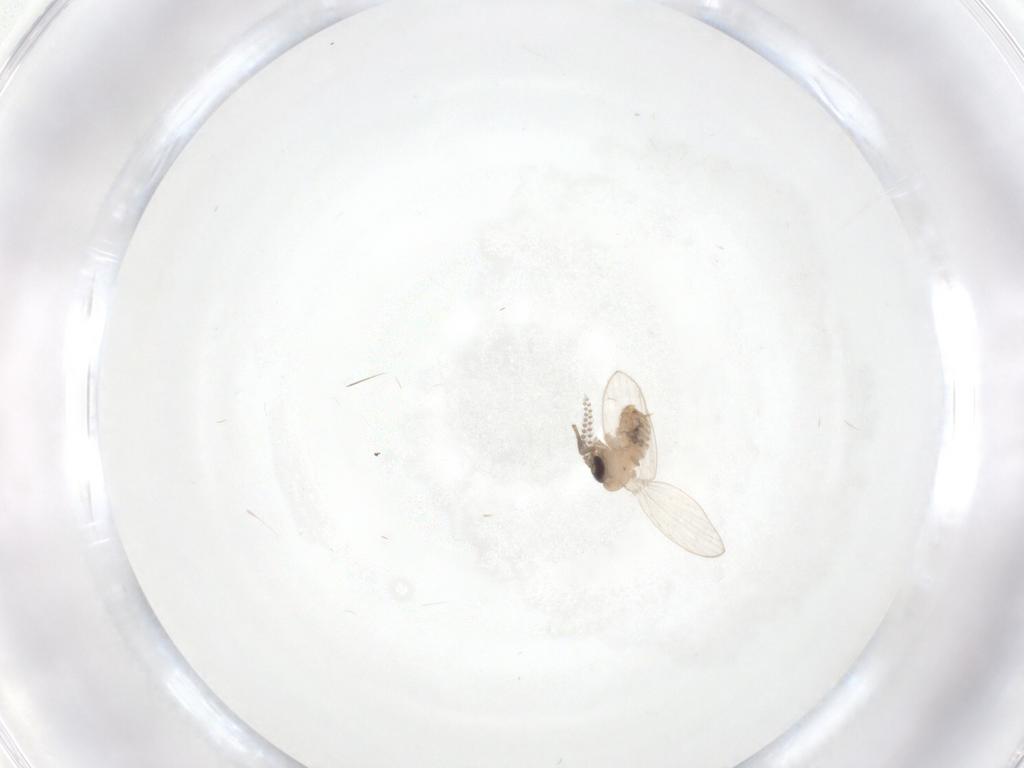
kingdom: Animalia
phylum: Arthropoda
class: Insecta
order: Diptera
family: Psychodidae
